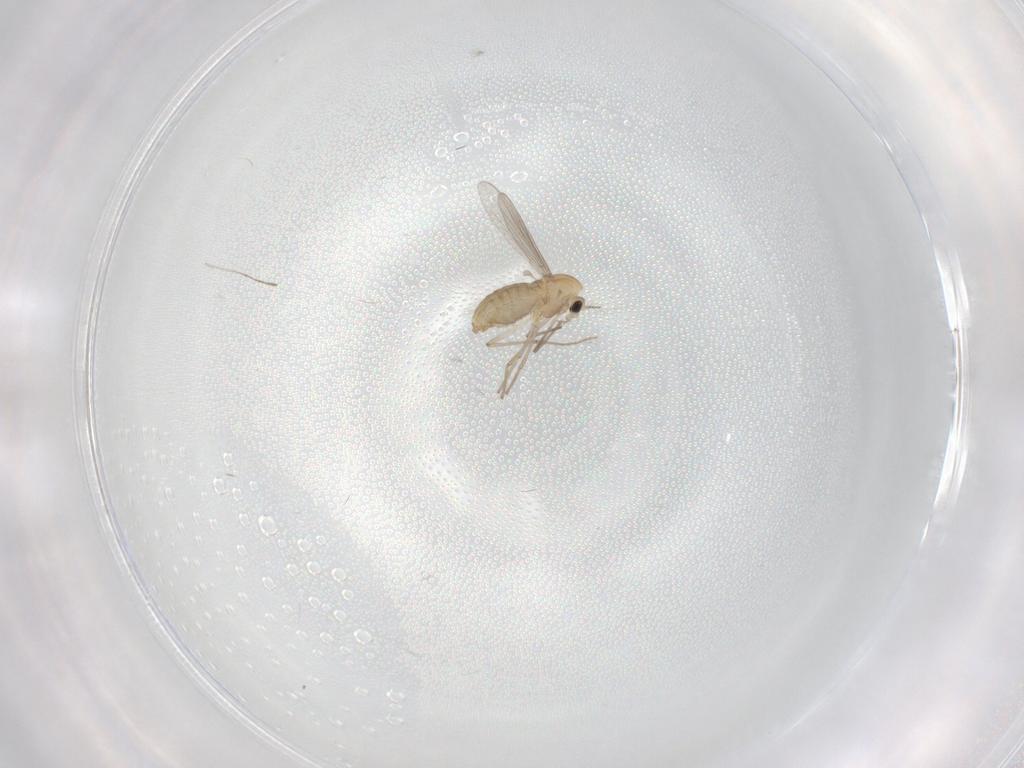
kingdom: Animalia
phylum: Arthropoda
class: Insecta
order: Diptera
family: Chironomidae
